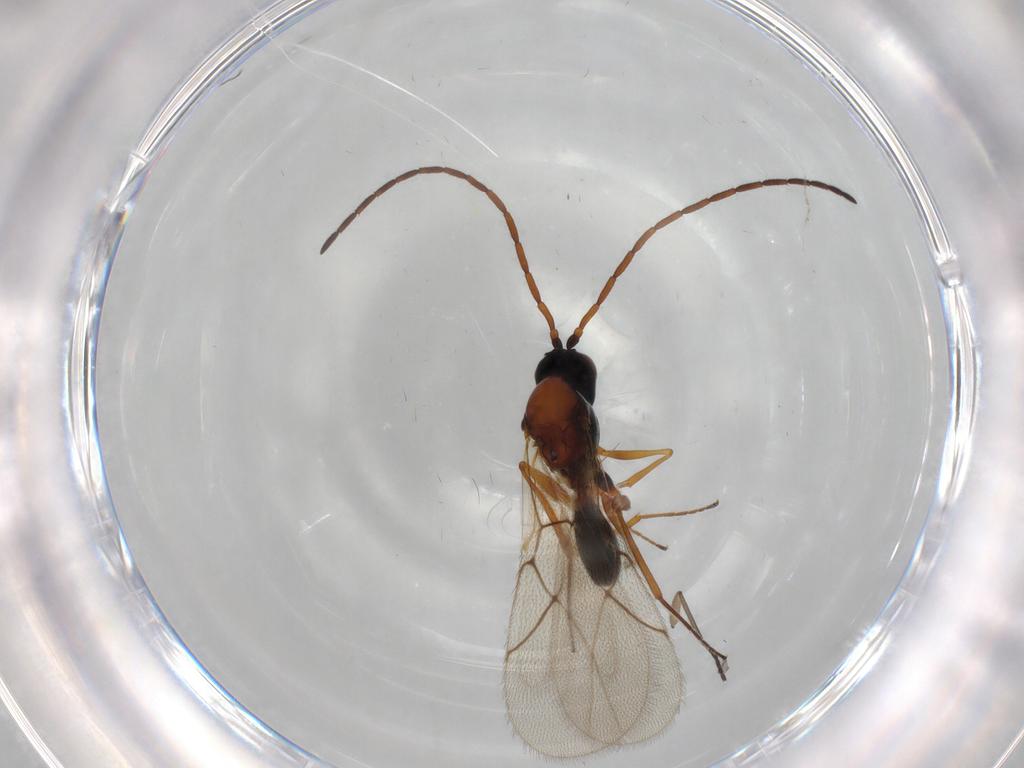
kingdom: Animalia
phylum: Arthropoda
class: Insecta
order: Hymenoptera
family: Figitidae
